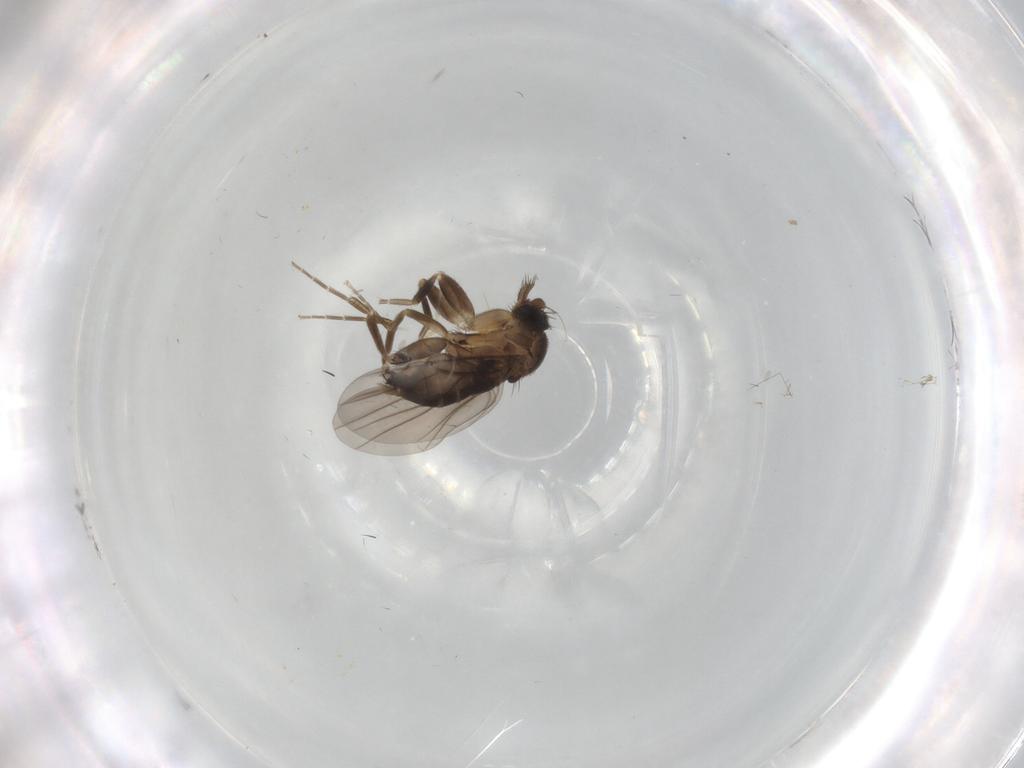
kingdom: Animalia
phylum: Arthropoda
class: Insecta
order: Diptera
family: Chironomidae
